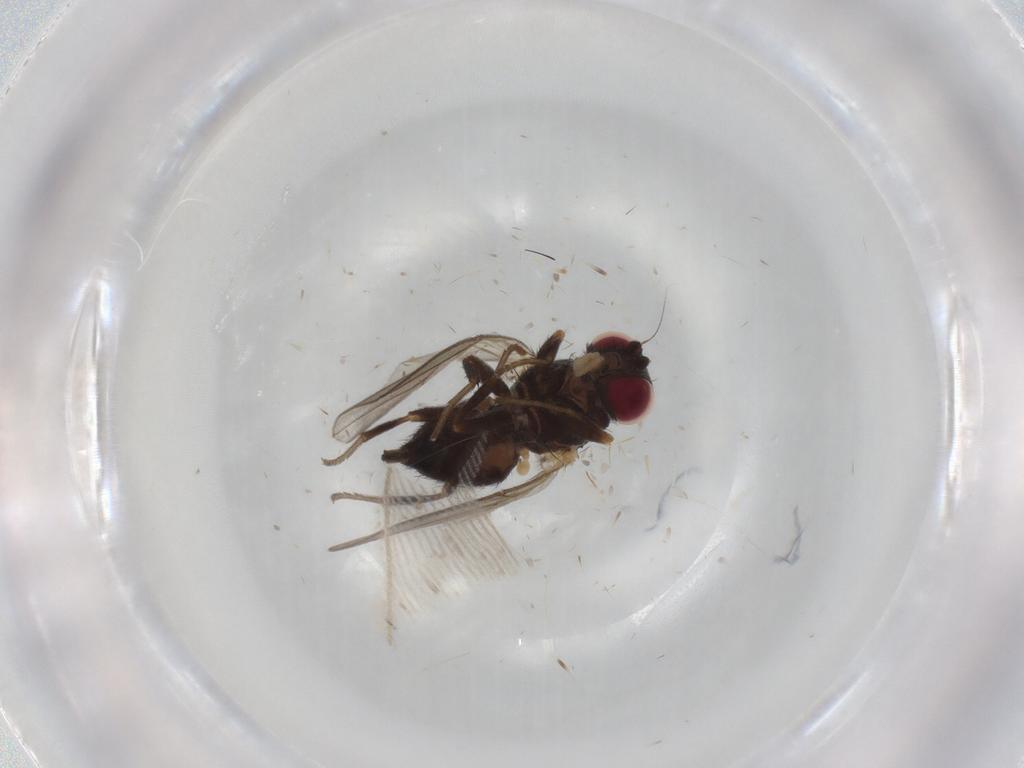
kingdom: Animalia
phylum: Arthropoda
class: Insecta
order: Diptera
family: Agromyzidae
